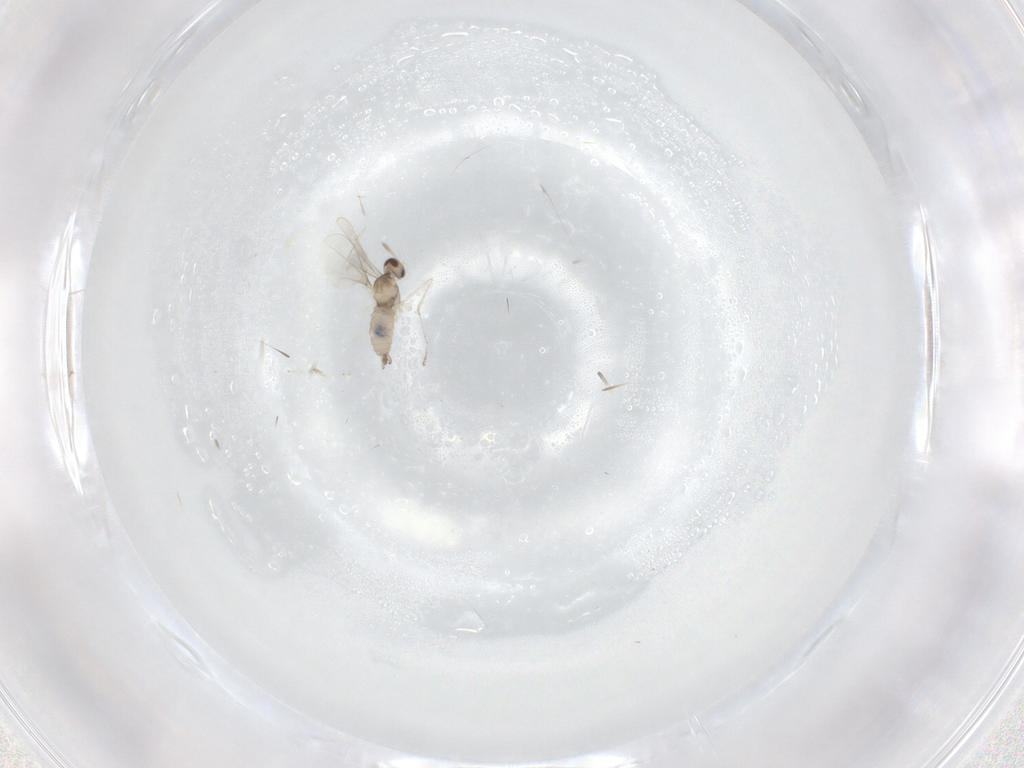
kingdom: Animalia
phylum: Arthropoda
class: Insecta
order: Diptera
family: Cecidomyiidae
